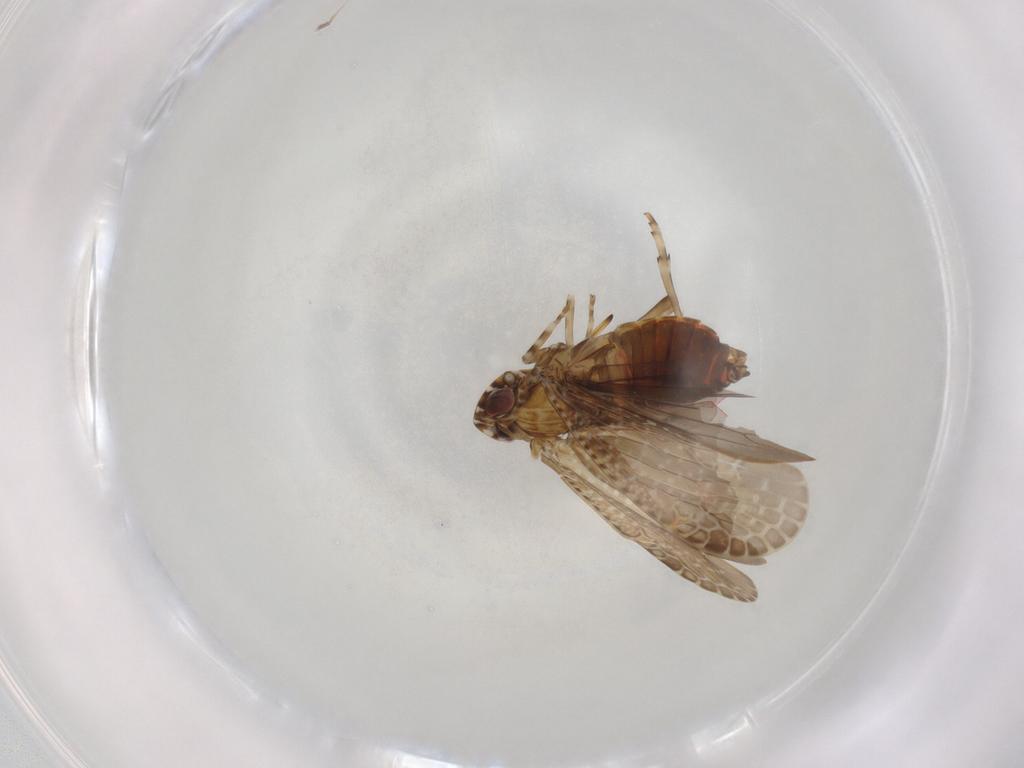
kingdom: Animalia
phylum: Arthropoda
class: Insecta
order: Hemiptera
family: Achilidae
